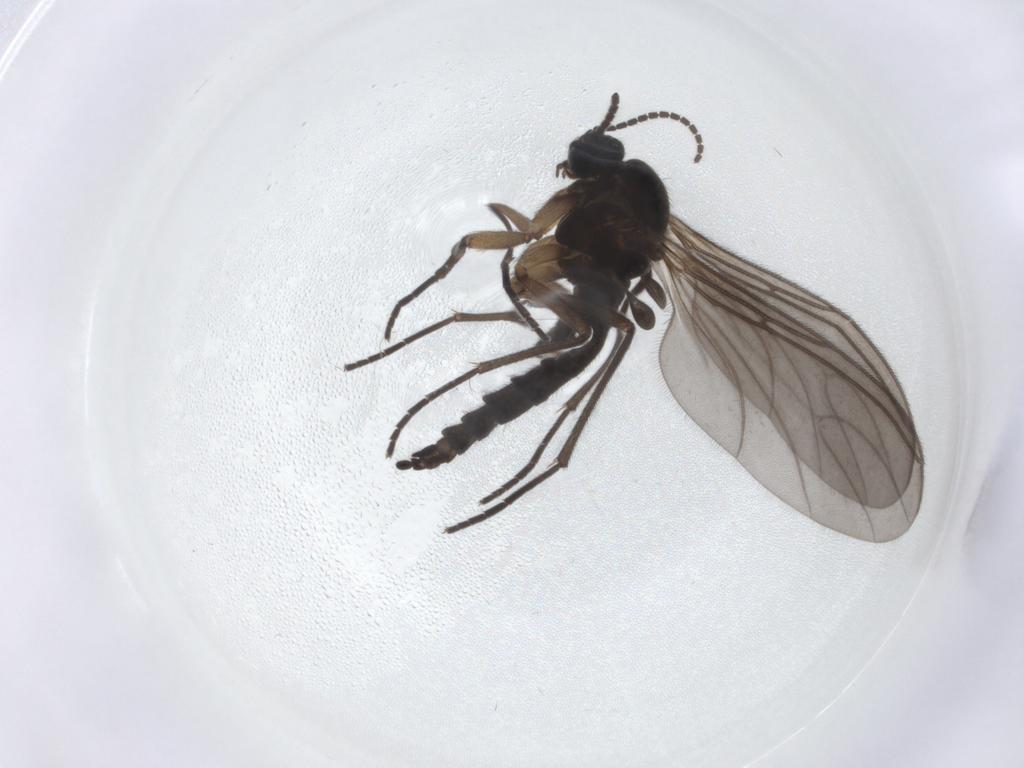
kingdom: Animalia
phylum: Arthropoda
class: Insecta
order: Diptera
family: Sciaridae
